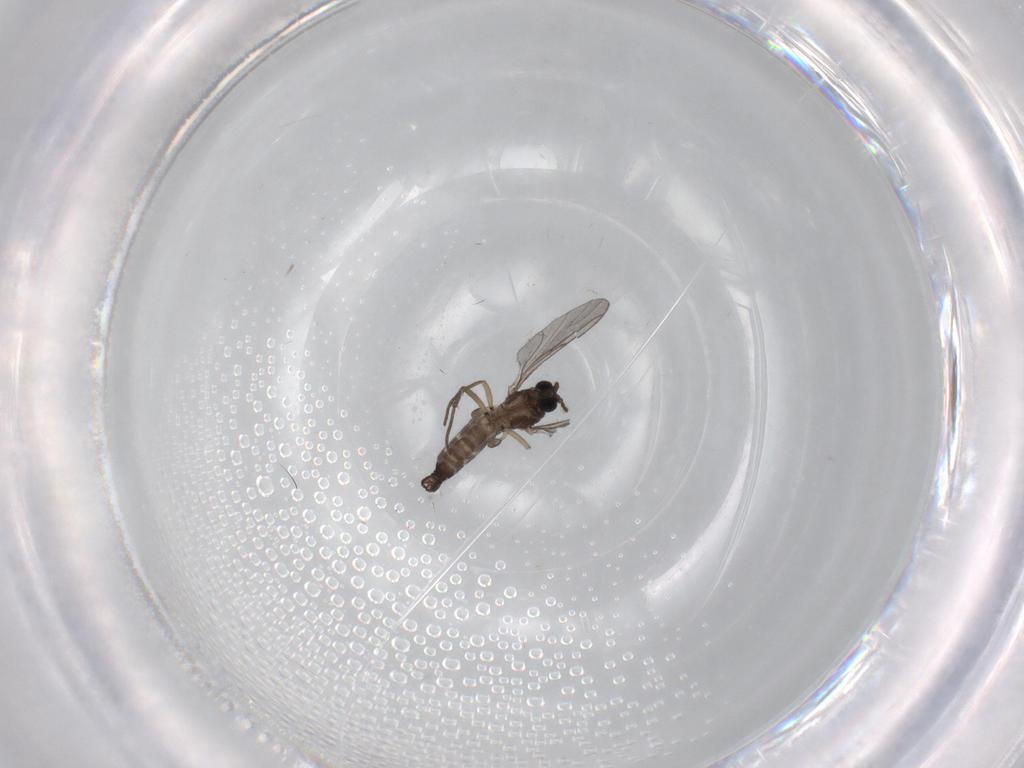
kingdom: Animalia
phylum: Arthropoda
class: Insecta
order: Diptera
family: Sciaridae
